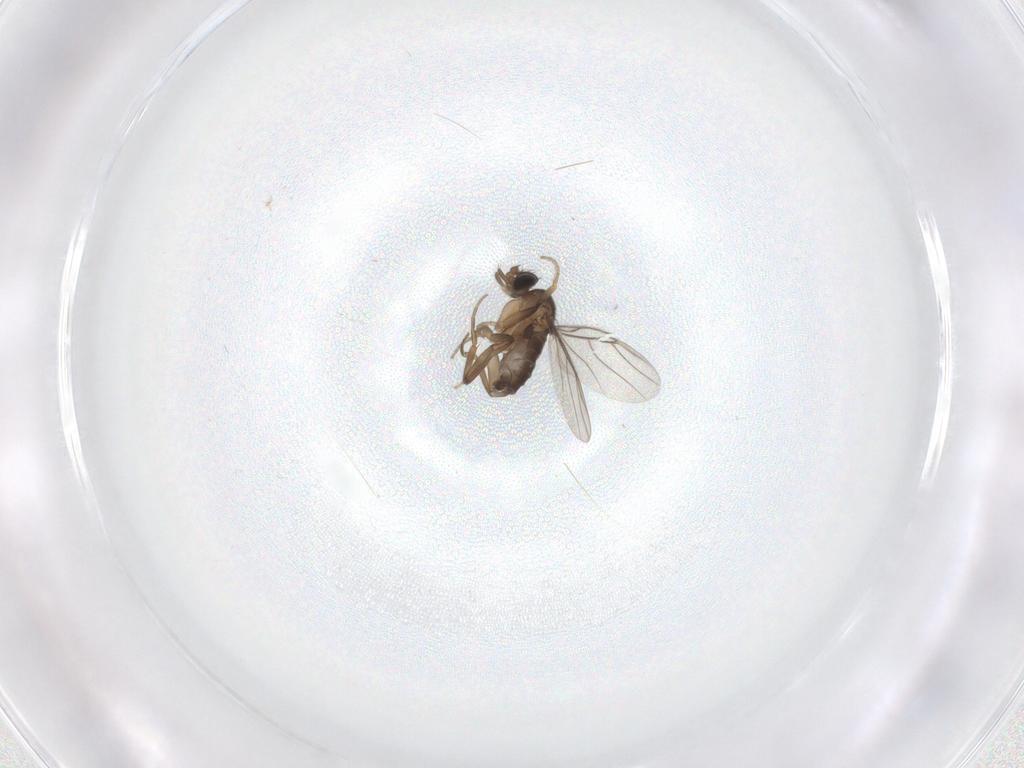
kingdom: Animalia
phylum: Arthropoda
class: Insecta
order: Diptera
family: Phoridae
